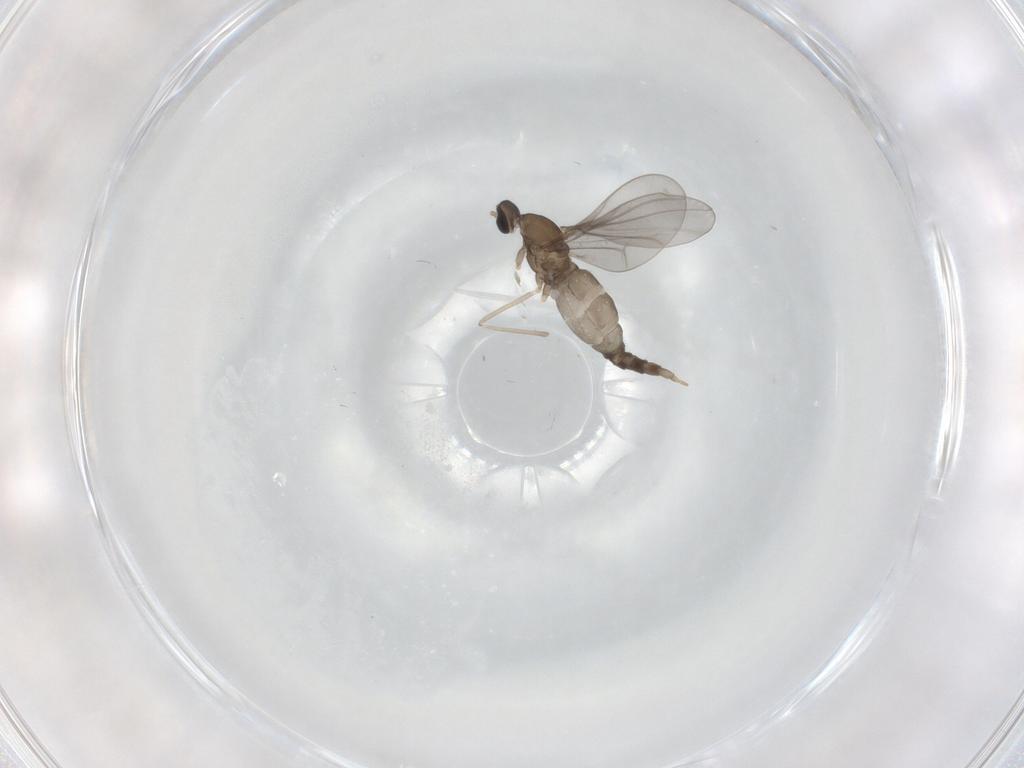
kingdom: Animalia
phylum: Arthropoda
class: Insecta
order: Diptera
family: Cecidomyiidae
